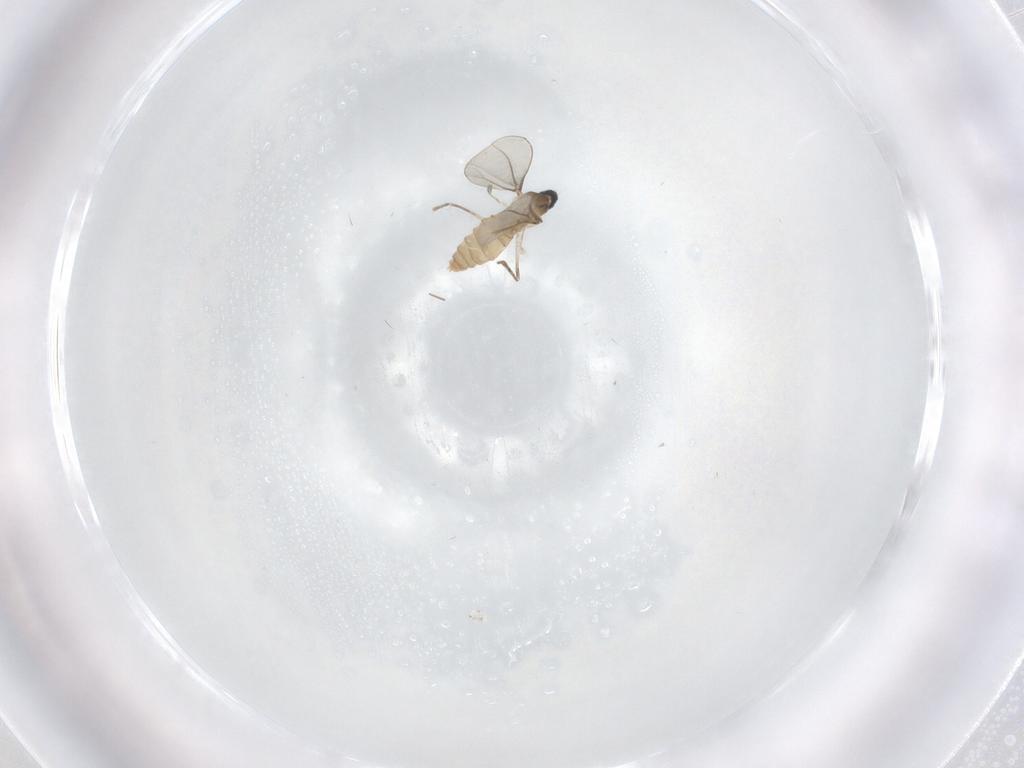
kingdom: Animalia
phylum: Arthropoda
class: Insecta
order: Diptera
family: Cecidomyiidae
